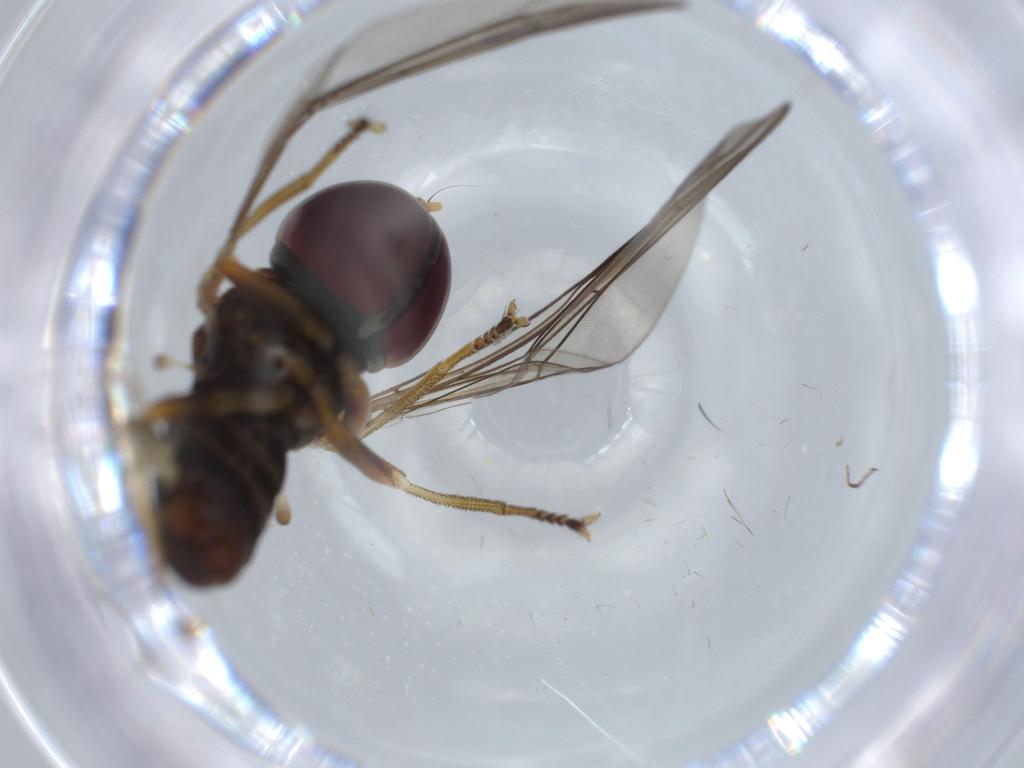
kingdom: Animalia
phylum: Arthropoda
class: Insecta
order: Diptera
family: Pipunculidae
